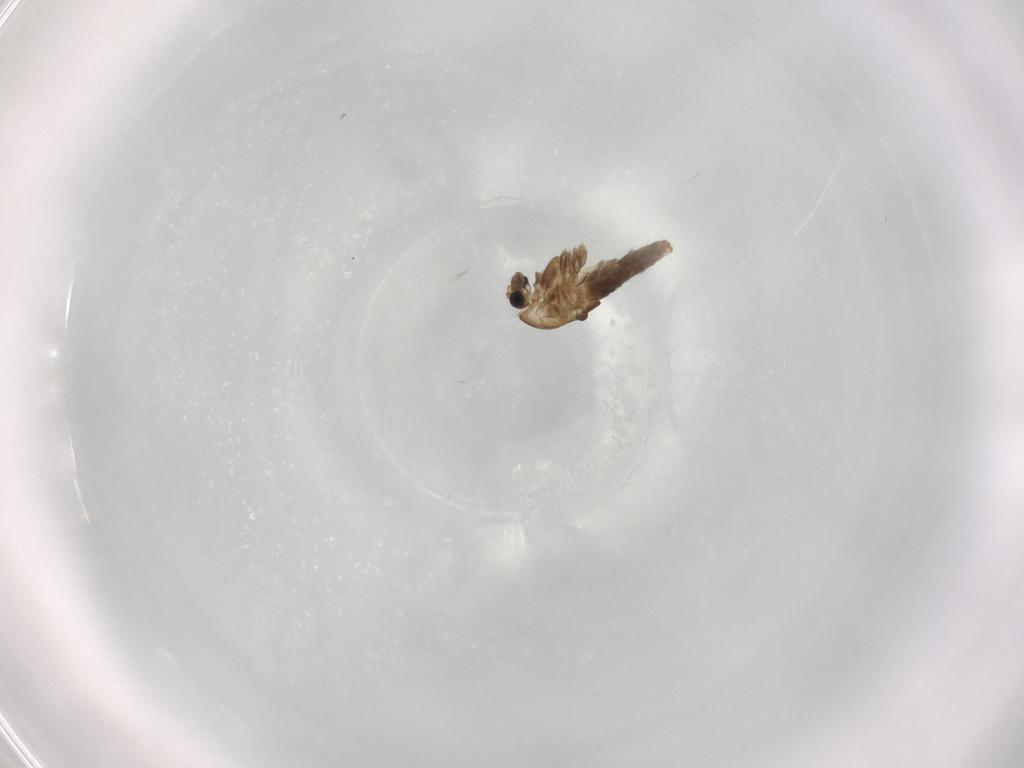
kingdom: Animalia
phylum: Arthropoda
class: Insecta
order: Diptera
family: Chironomidae
